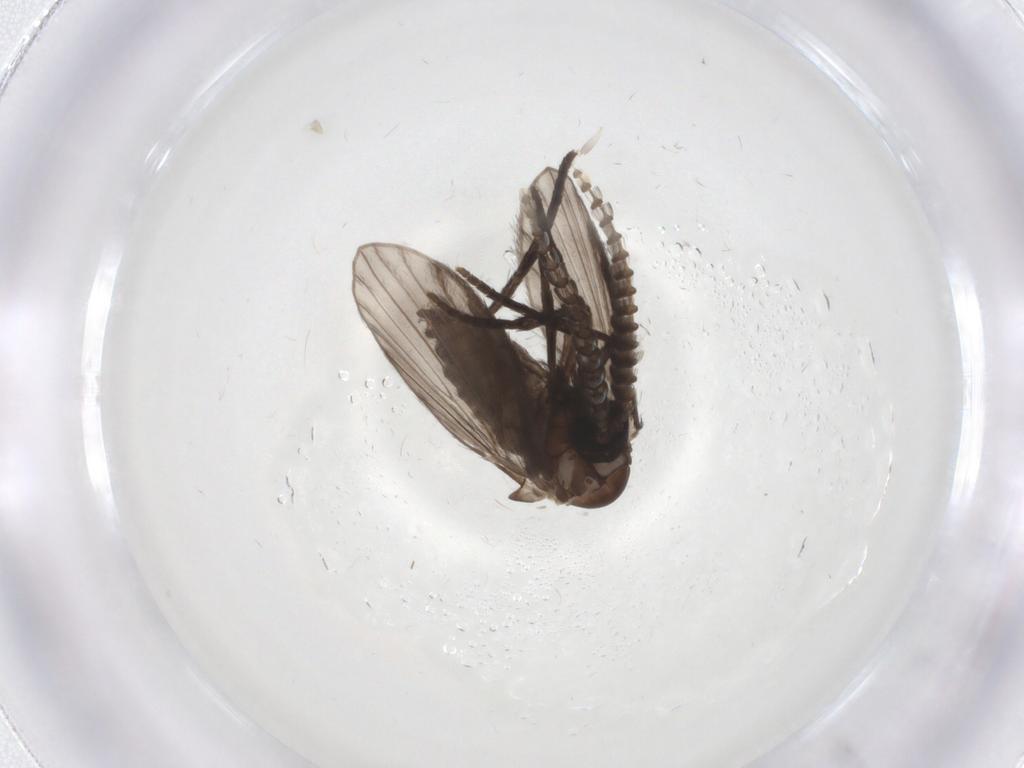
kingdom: Animalia
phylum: Arthropoda
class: Insecta
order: Diptera
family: Psychodidae
